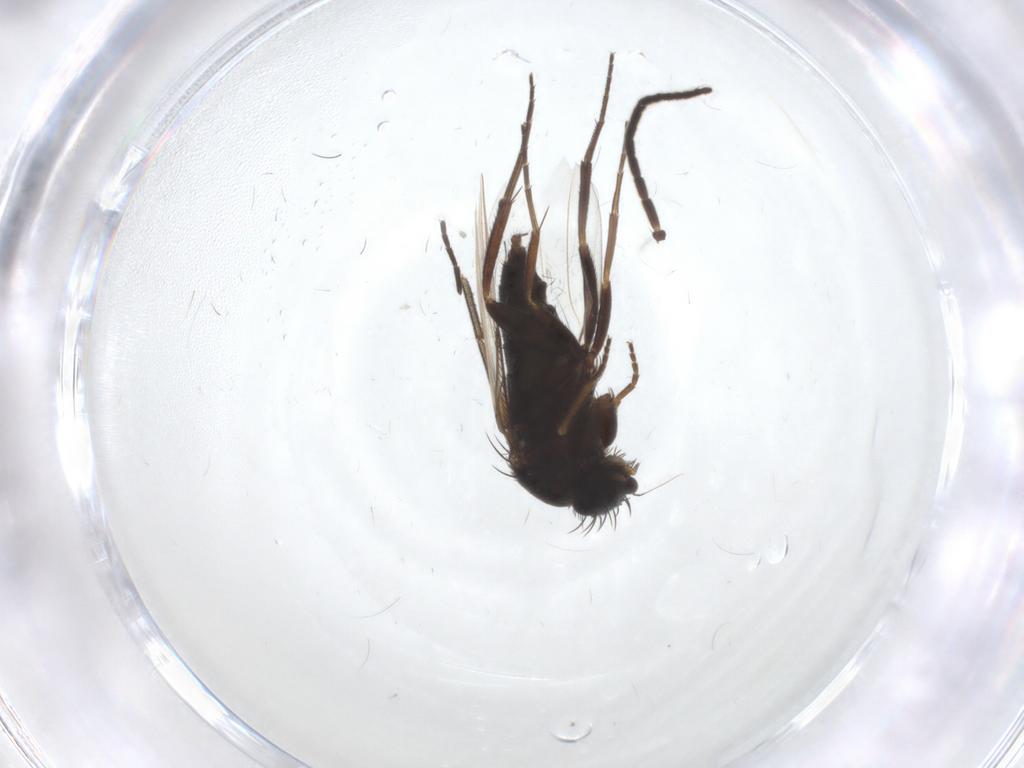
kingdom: Animalia
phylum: Arthropoda
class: Insecta
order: Diptera
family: Phoridae
